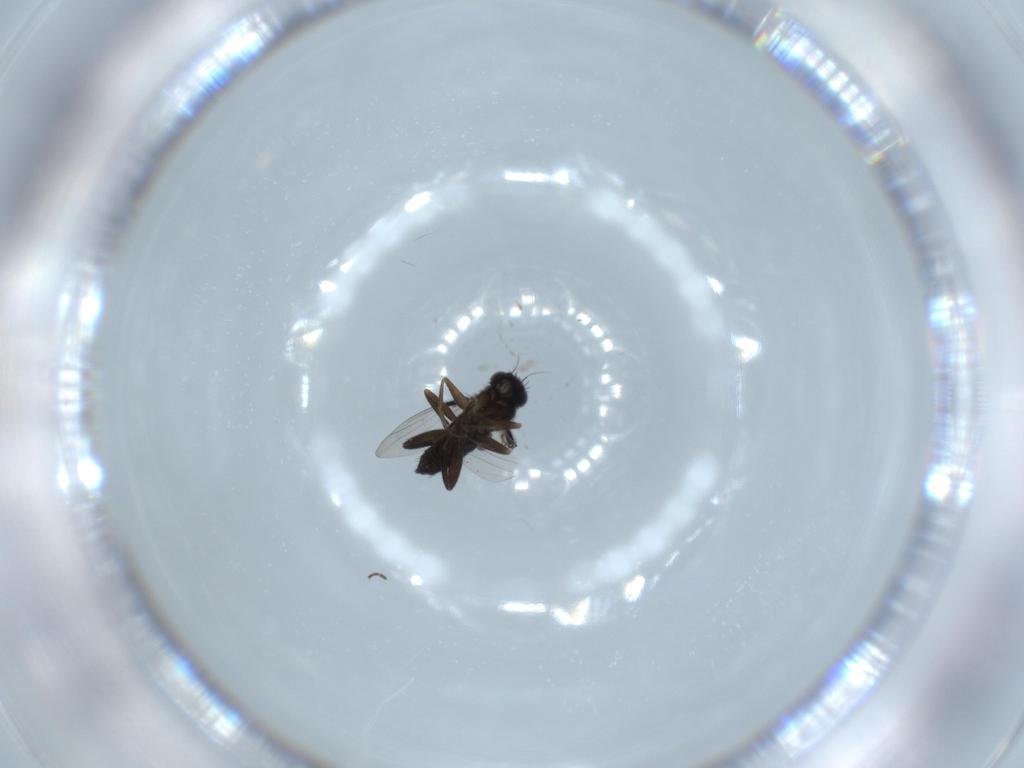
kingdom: Animalia
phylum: Arthropoda
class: Insecta
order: Diptera
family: Phoridae
